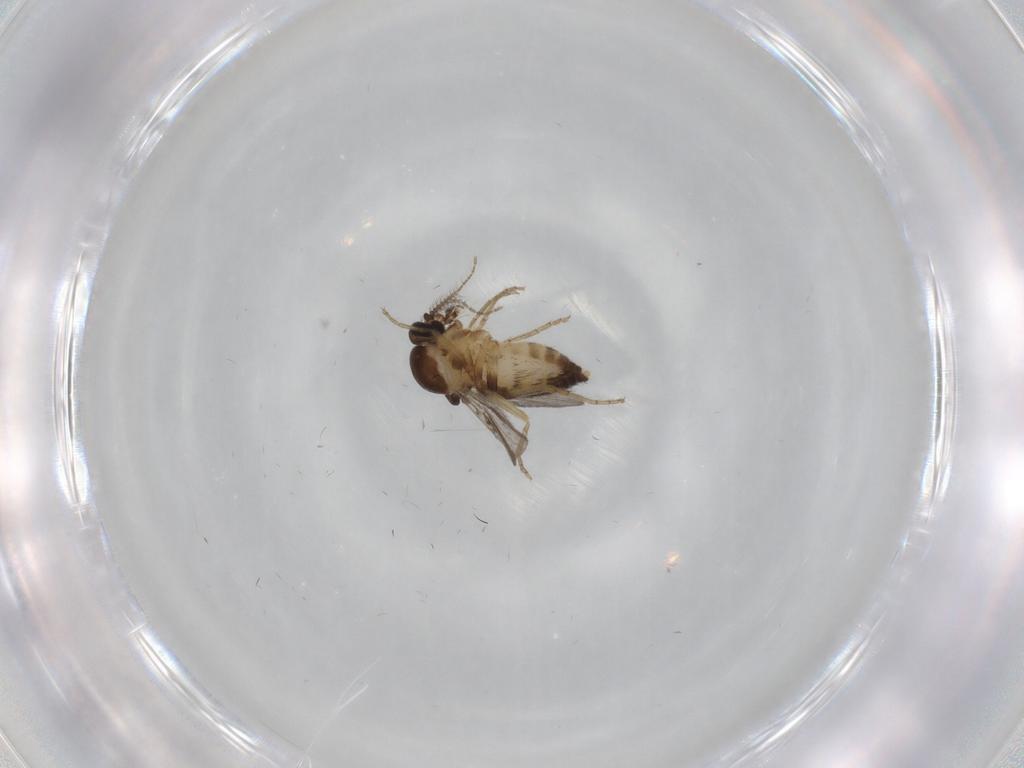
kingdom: Animalia
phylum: Arthropoda
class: Insecta
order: Diptera
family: Ceratopogonidae
